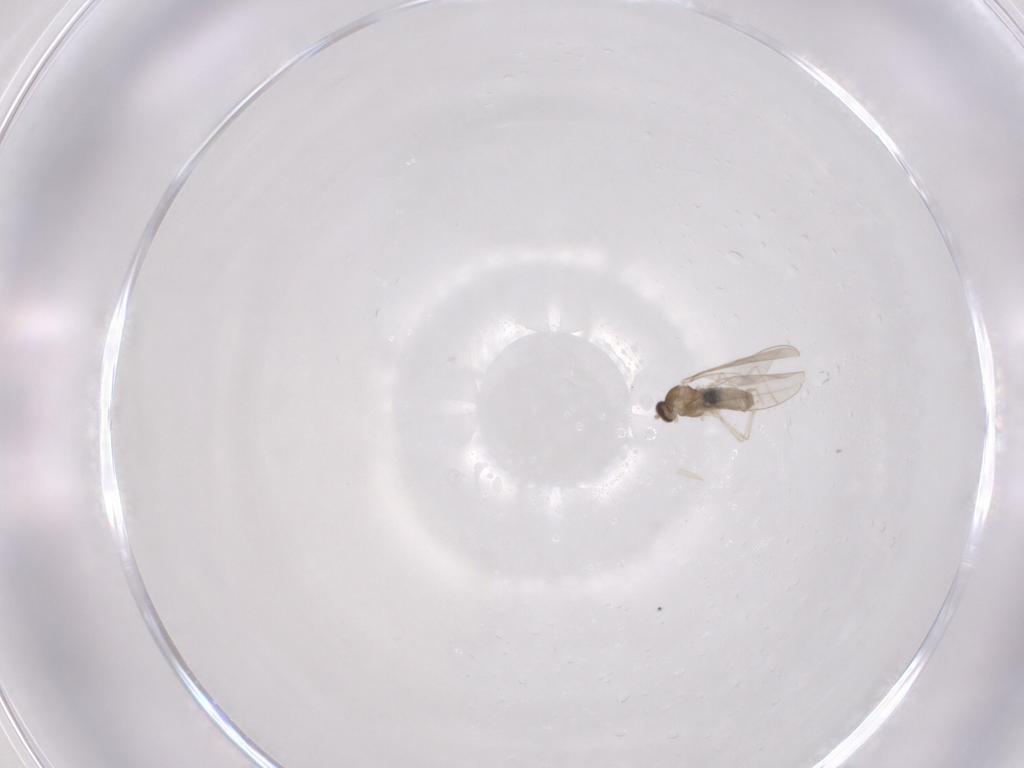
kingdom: Animalia
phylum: Arthropoda
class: Insecta
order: Diptera
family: Cecidomyiidae
